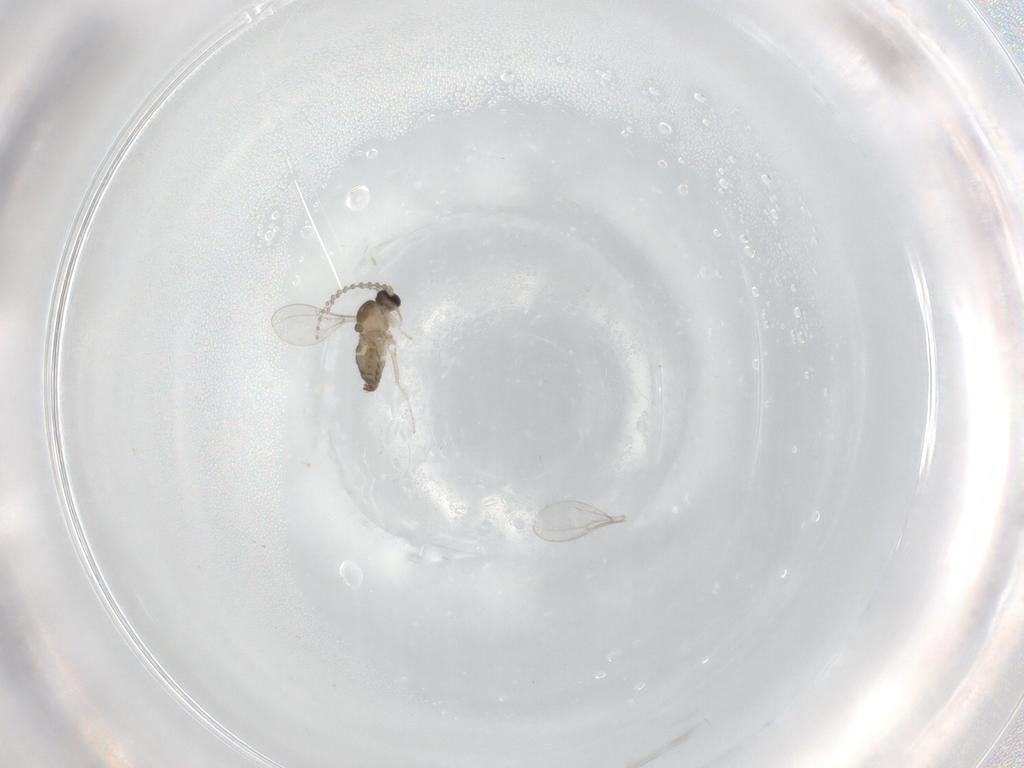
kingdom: Animalia
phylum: Arthropoda
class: Insecta
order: Diptera
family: Cecidomyiidae
